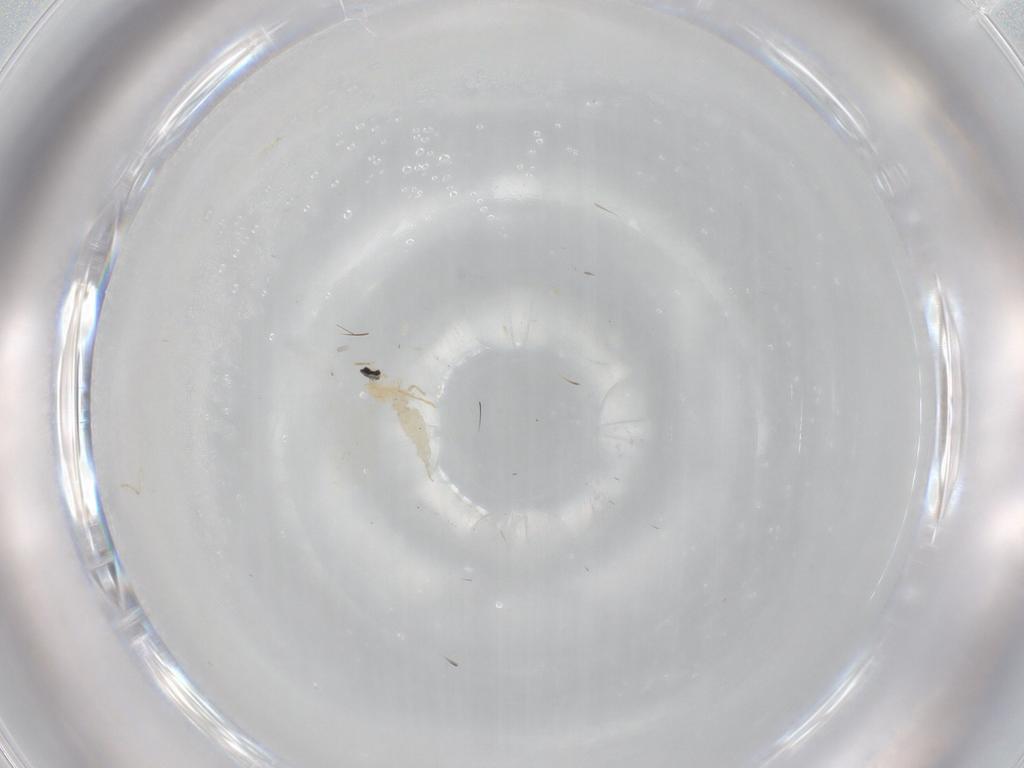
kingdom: Animalia
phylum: Arthropoda
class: Insecta
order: Diptera
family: Cecidomyiidae
